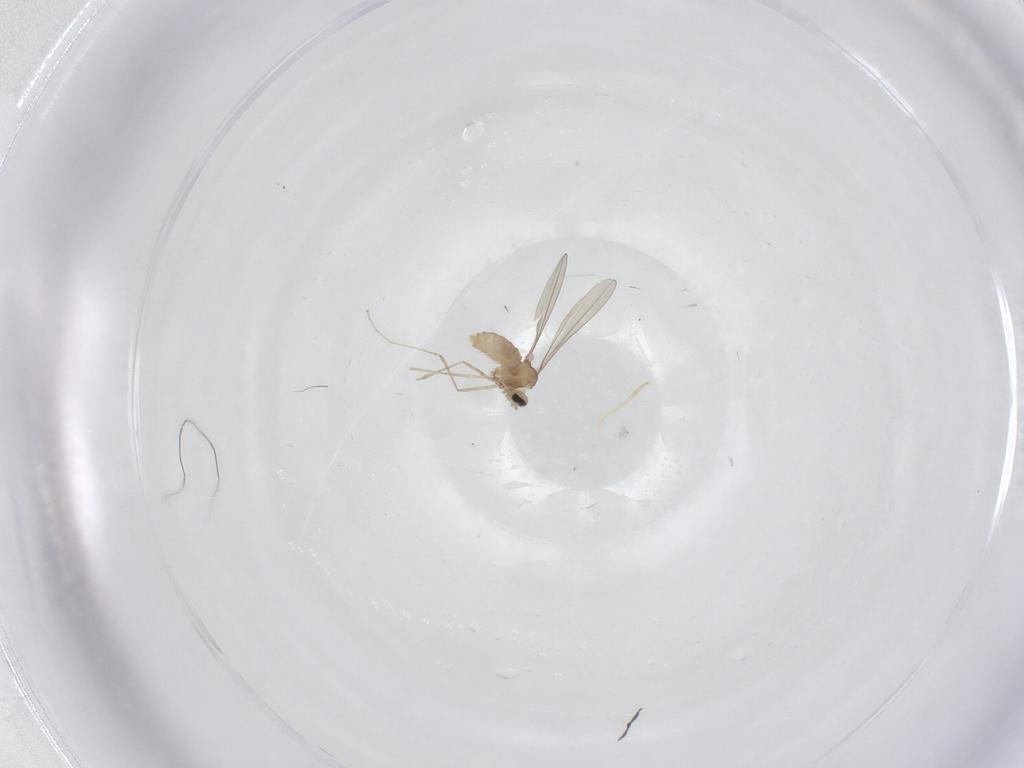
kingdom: Animalia
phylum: Arthropoda
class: Insecta
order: Diptera
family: Cecidomyiidae
